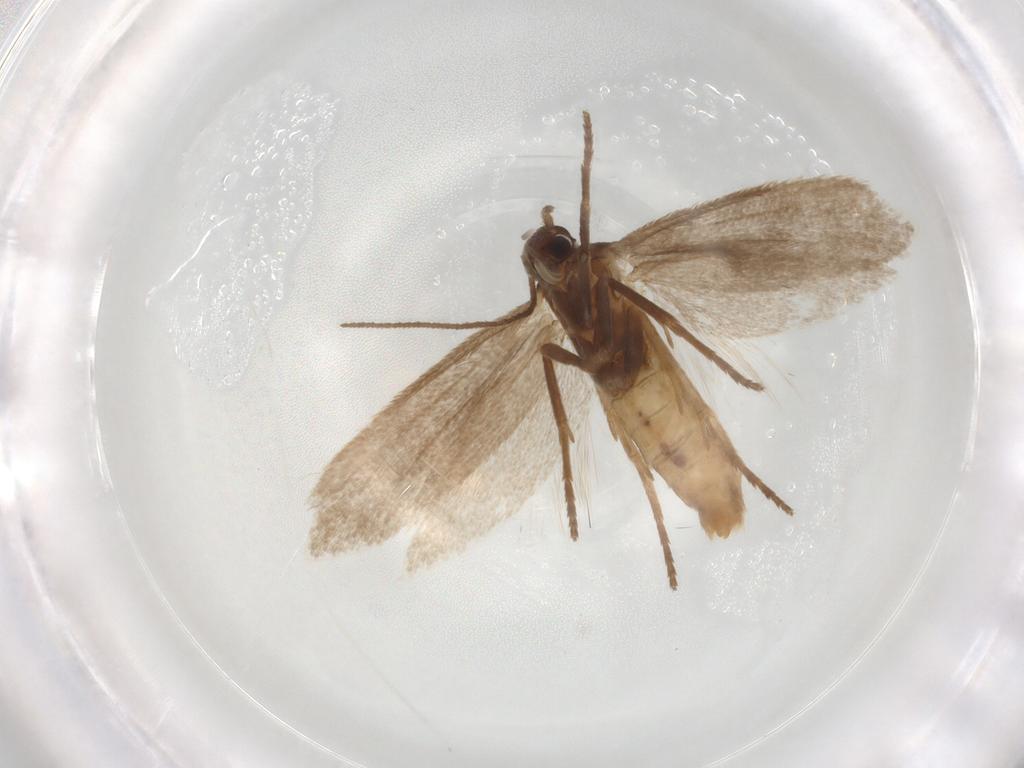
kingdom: Animalia
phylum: Arthropoda
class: Insecta
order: Lepidoptera
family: Limacodidae
